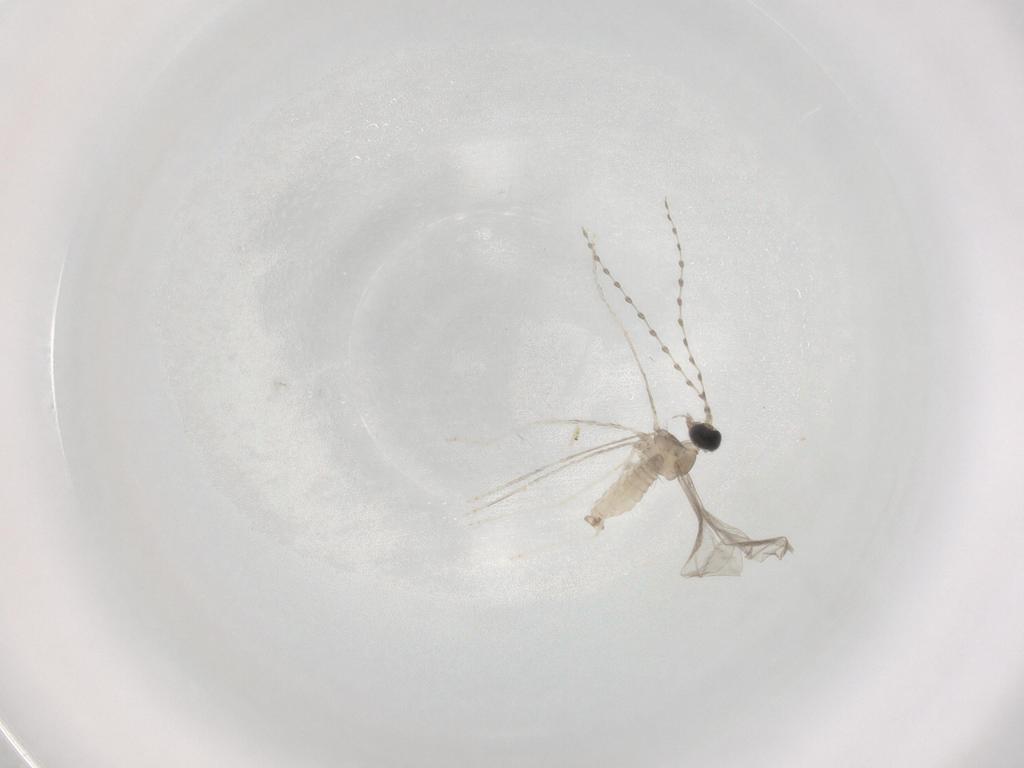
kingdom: Animalia
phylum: Arthropoda
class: Insecta
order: Diptera
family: Cecidomyiidae
